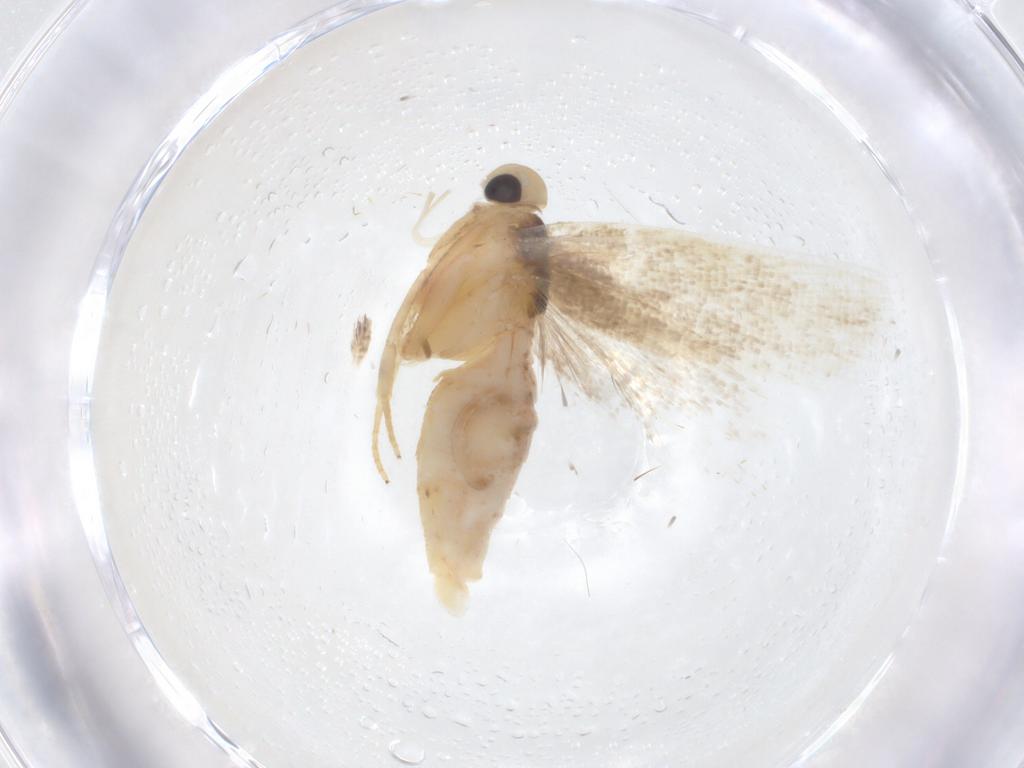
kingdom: Animalia
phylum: Arthropoda
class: Insecta
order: Lepidoptera
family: Gelechiidae
